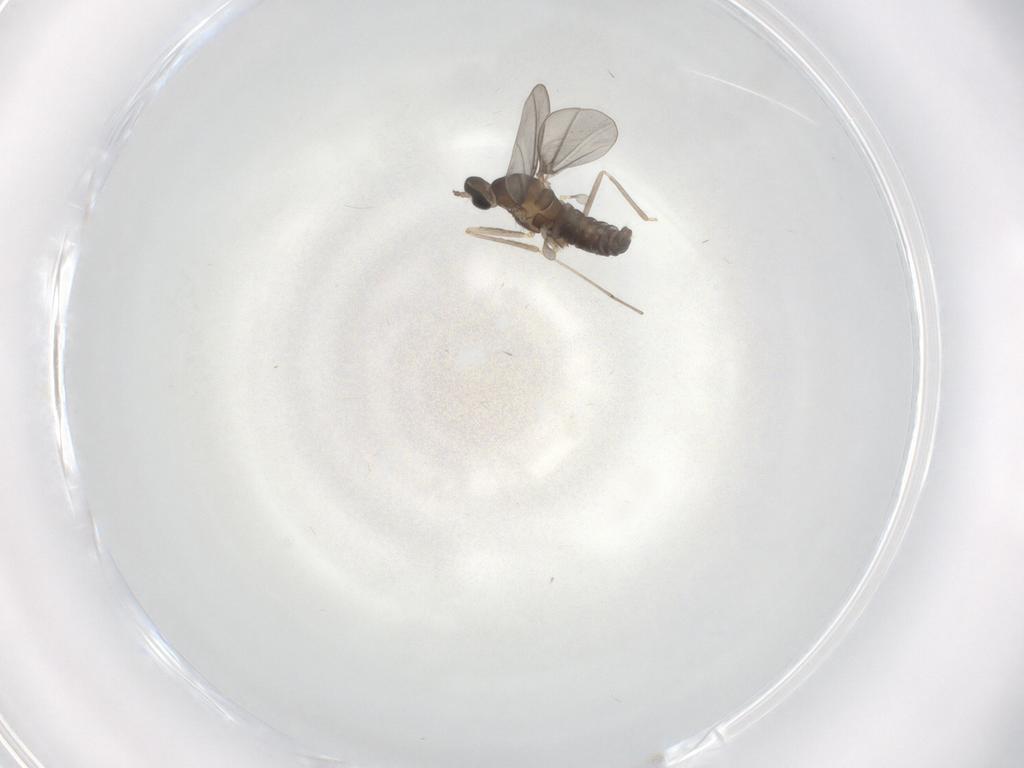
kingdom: Animalia
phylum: Arthropoda
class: Insecta
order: Diptera
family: Cecidomyiidae
